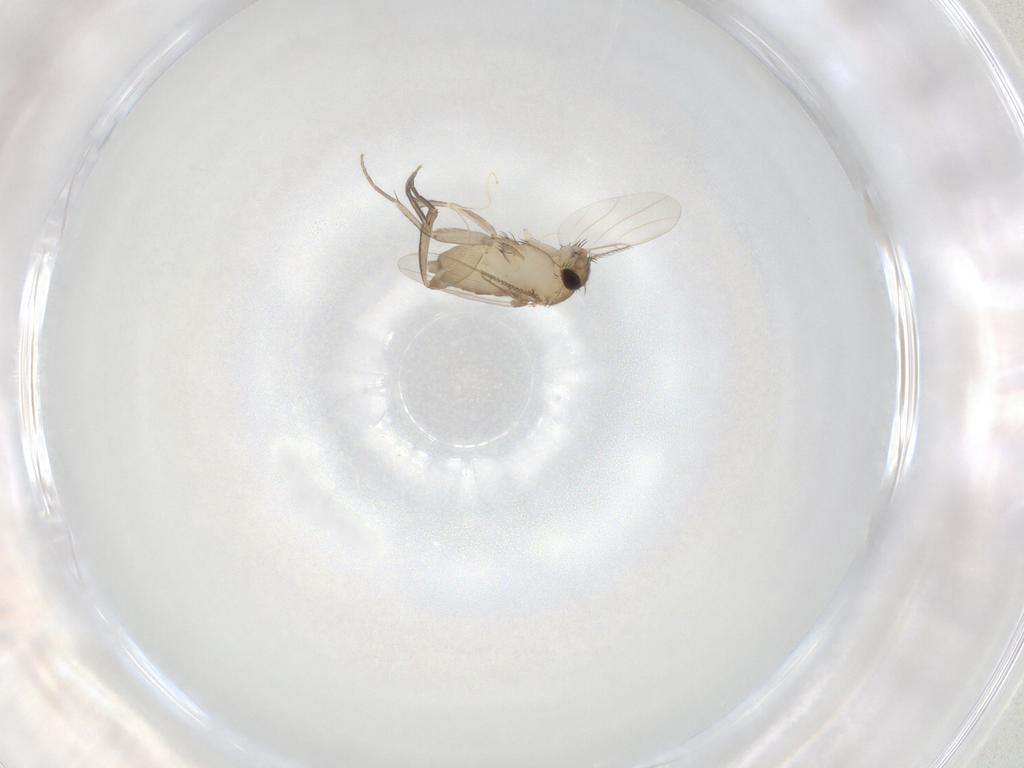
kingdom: Animalia
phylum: Arthropoda
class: Insecta
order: Diptera
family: Phoridae
